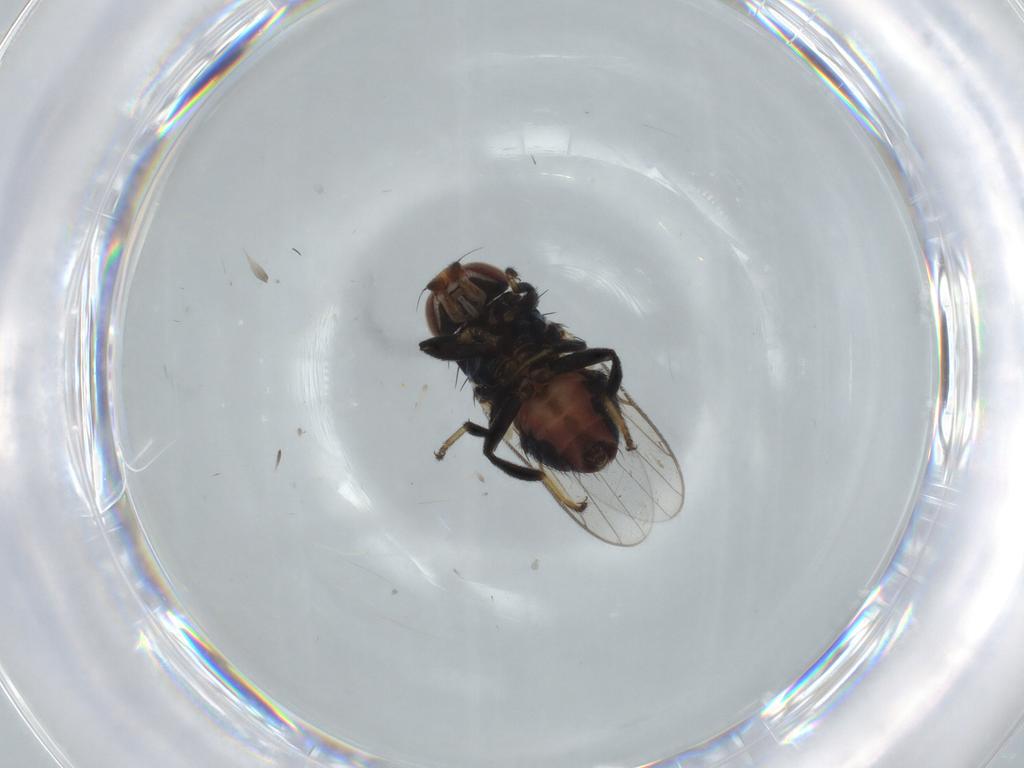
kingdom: Animalia
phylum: Arthropoda
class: Insecta
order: Diptera
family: Chloropidae
